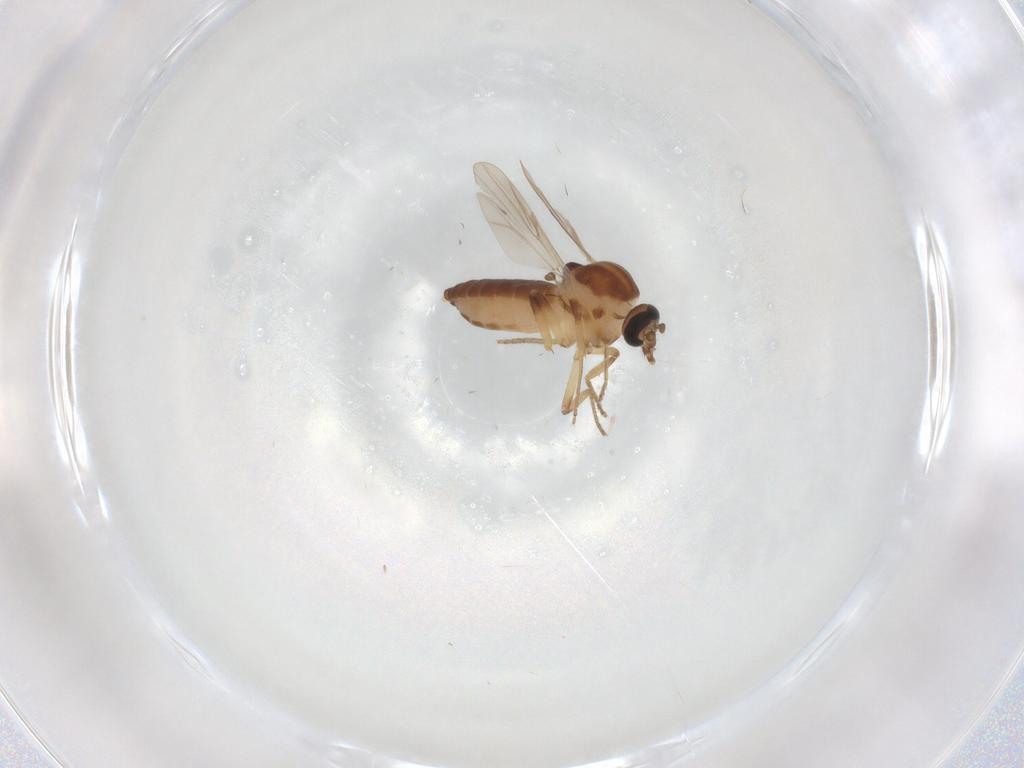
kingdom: Animalia
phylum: Arthropoda
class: Insecta
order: Diptera
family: Ceratopogonidae
